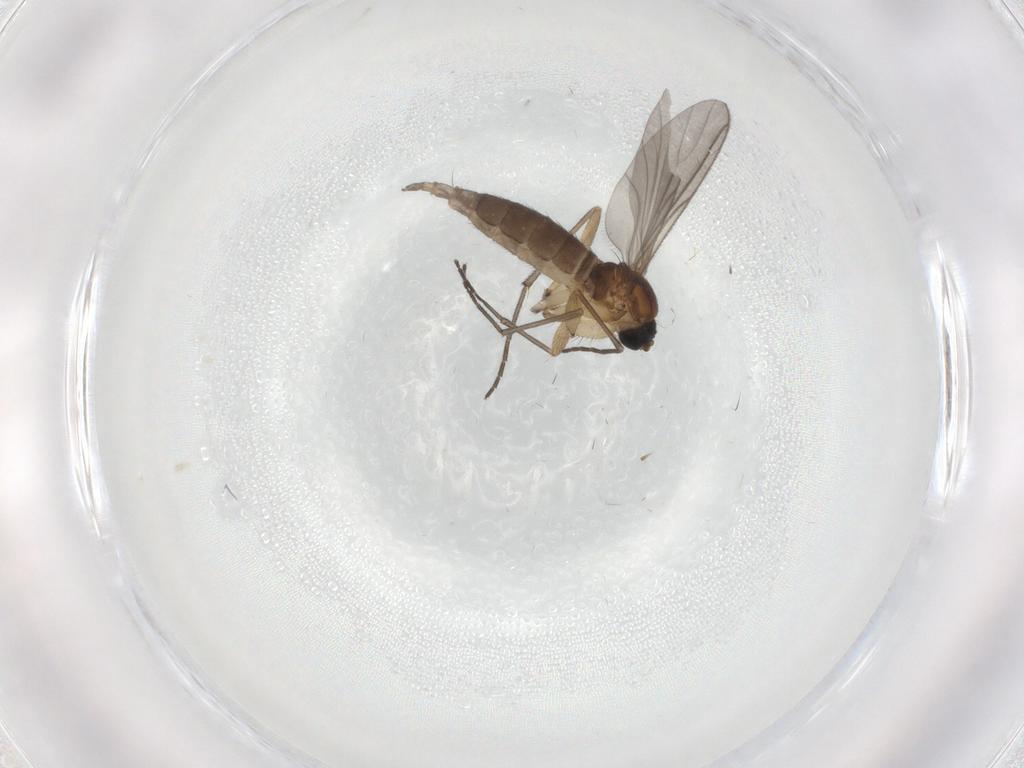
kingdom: Animalia
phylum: Arthropoda
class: Insecta
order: Diptera
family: Sciaridae
